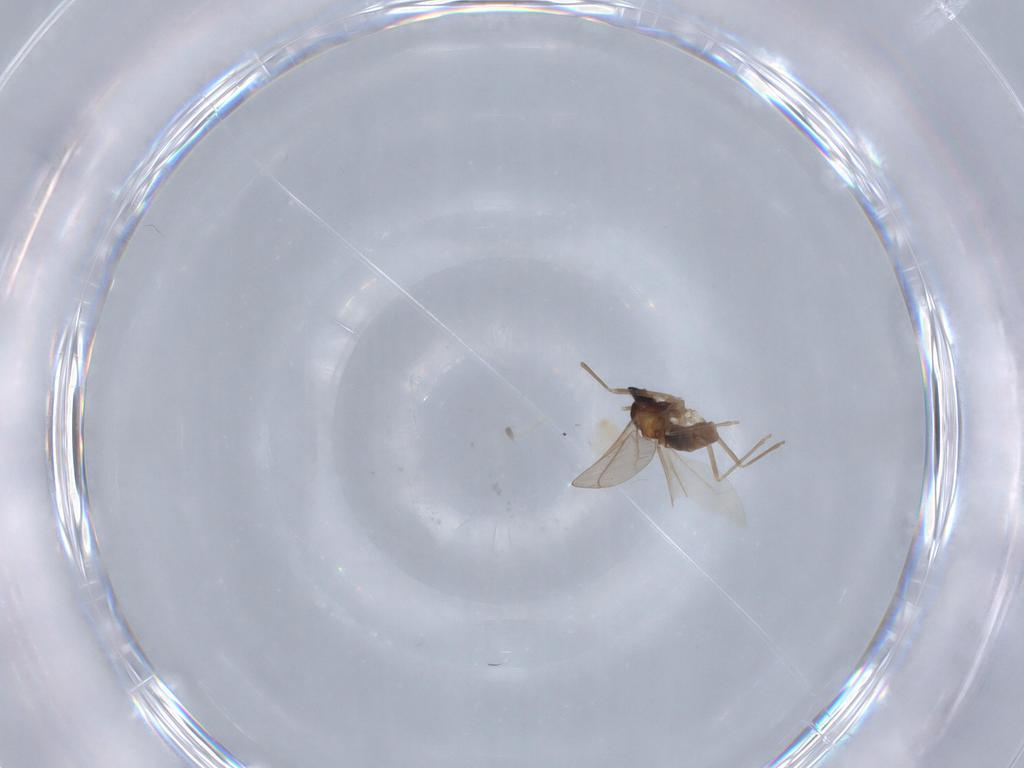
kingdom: Animalia
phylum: Arthropoda
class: Insecta
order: Diptera
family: Cecidomyiidae
